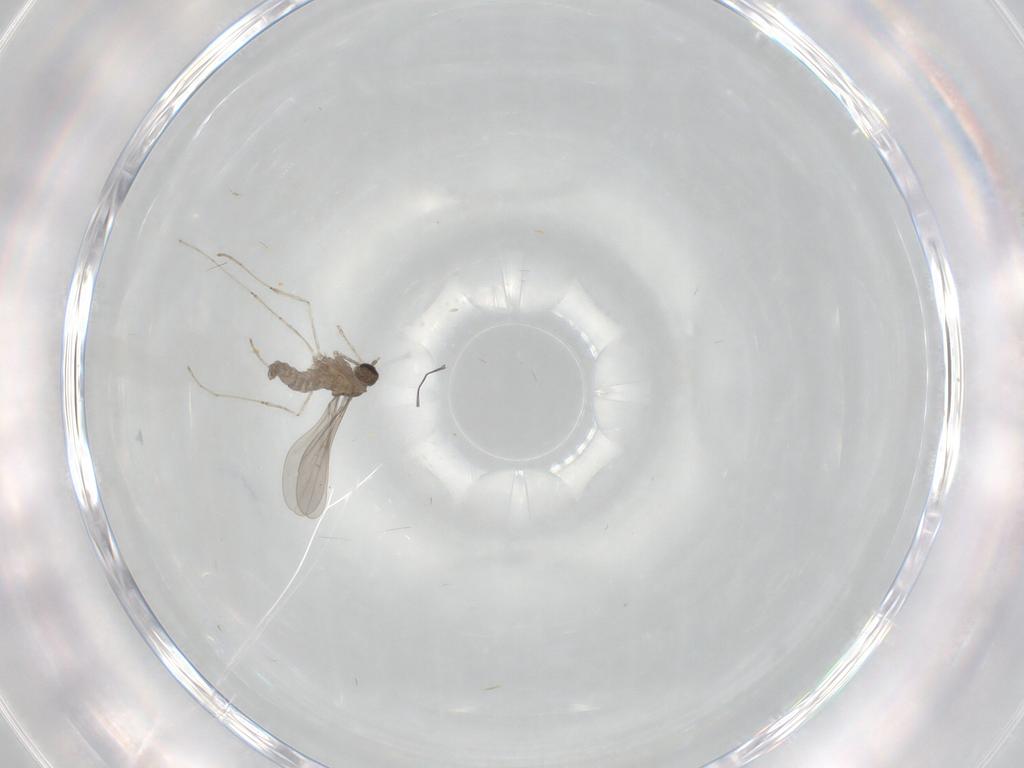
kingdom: Animalia
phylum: Arthropoda
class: Insecta
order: Diptera
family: Cecidomyiidae
